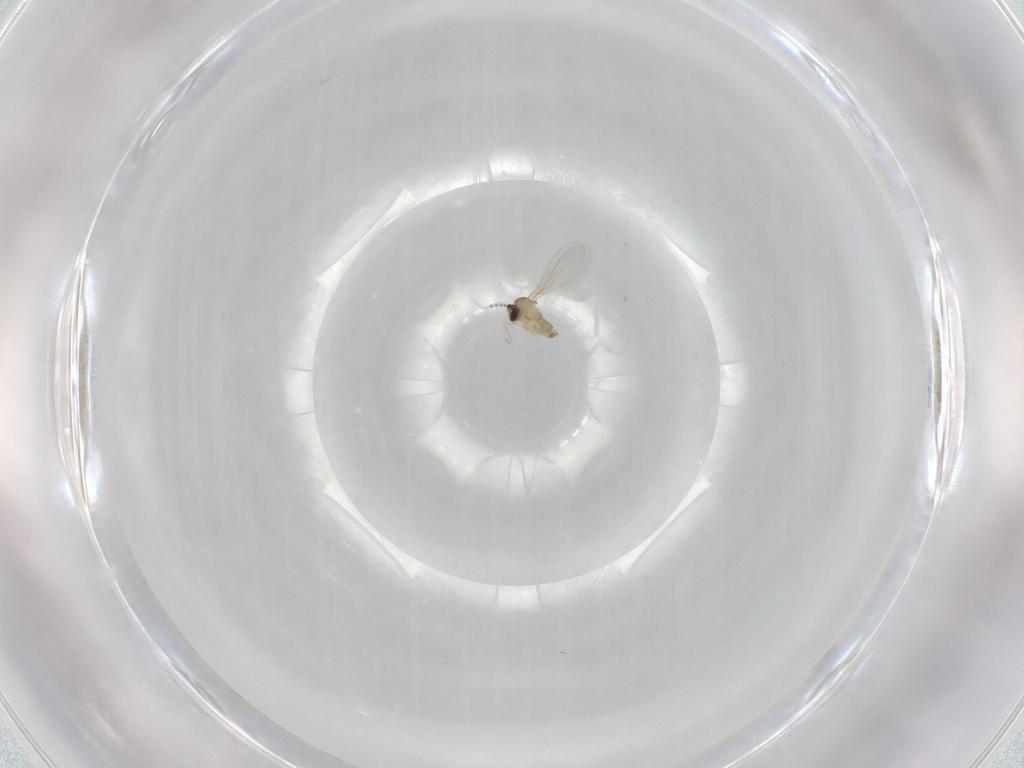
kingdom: Animalia
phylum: Arthropoda
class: Insecta
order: Diptera
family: Cecidomyiidae
